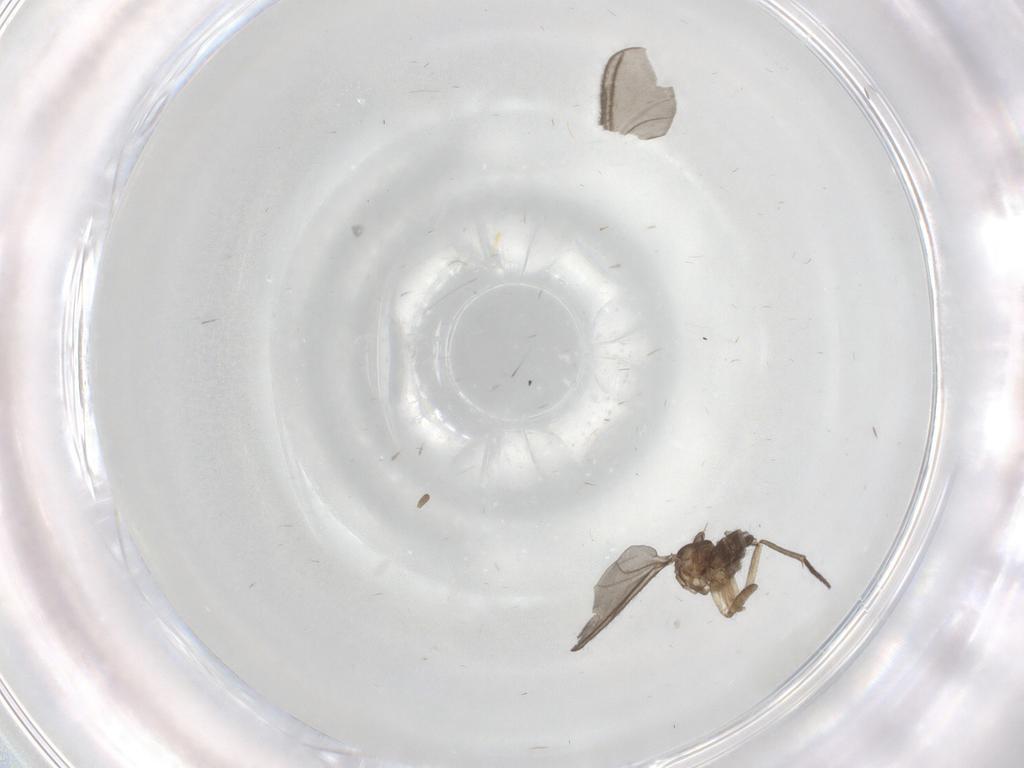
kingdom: Animalia
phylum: Arthropoda
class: Insecta
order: Diptera
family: Sciaridae
